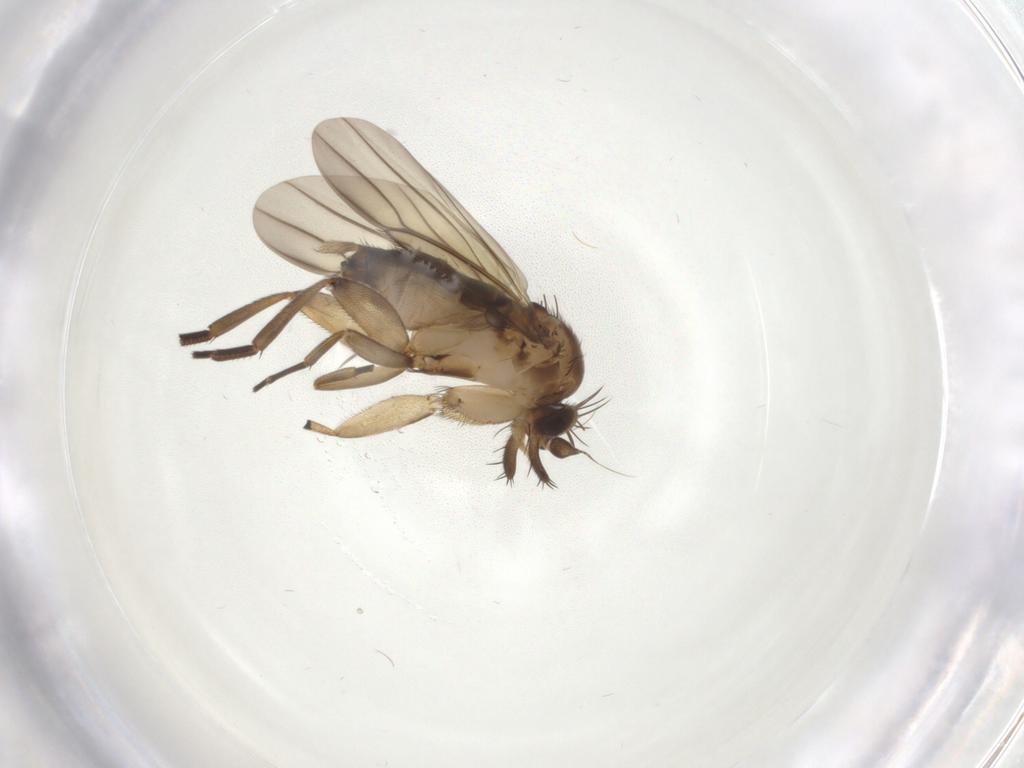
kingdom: Animalia
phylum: Arthropoda
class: Insecta
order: Diptera
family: Phoridae
